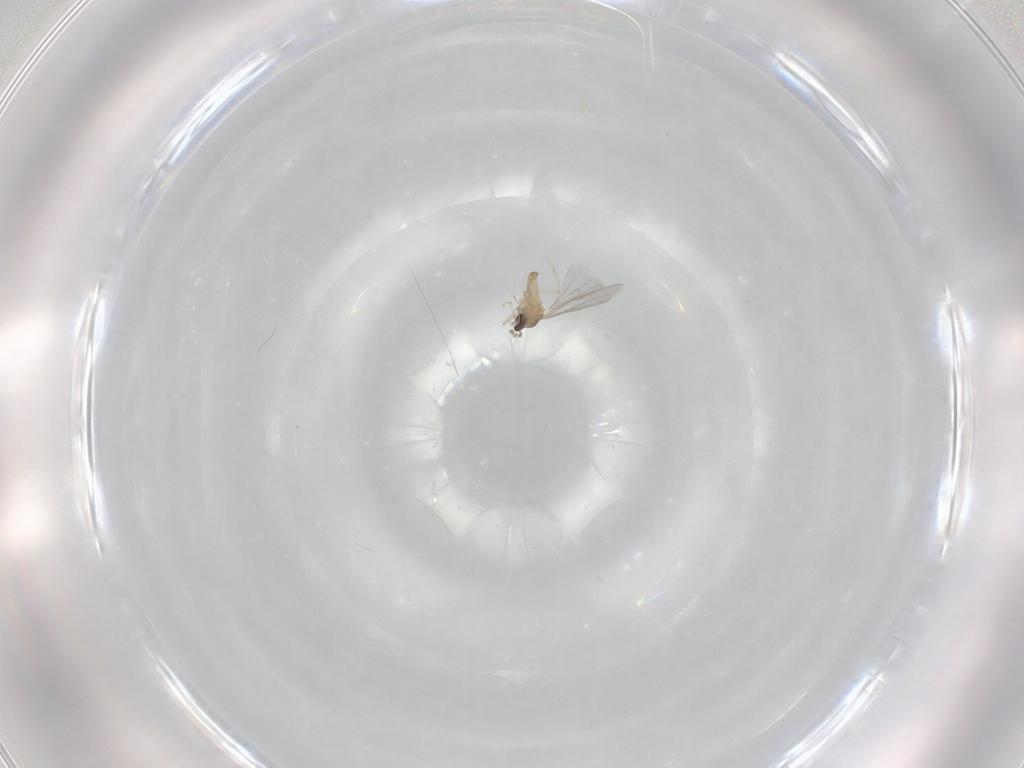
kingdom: Animalia
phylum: Arthropoda
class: Insecta
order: Diptera
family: Cecidomyiidae
